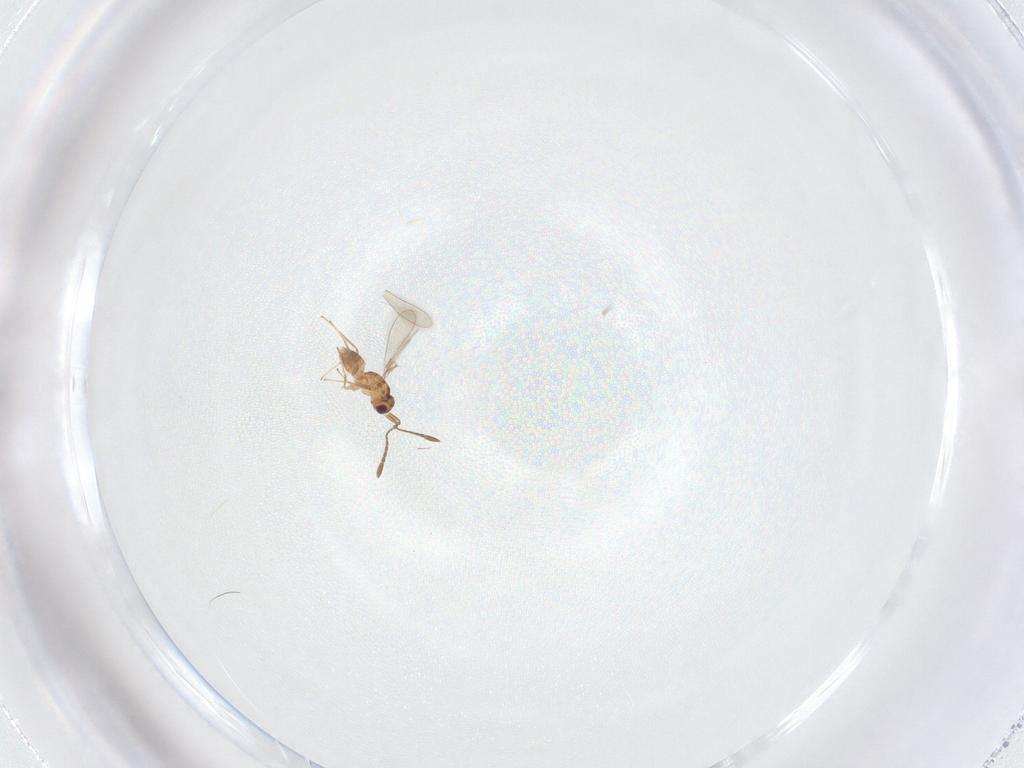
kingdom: Animalia
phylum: Arthropoda
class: Insecta
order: Hymenoptera
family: Mymaridae
